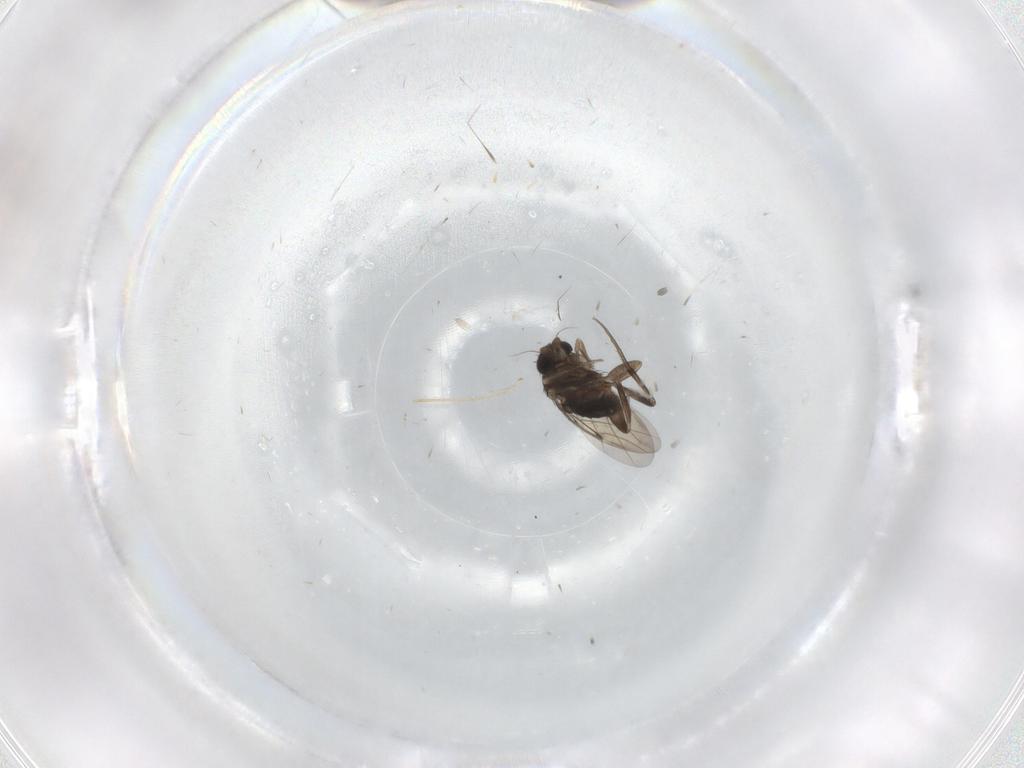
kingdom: Animalia
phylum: Arthropoda
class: Insecta
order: Diptera
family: Phoridae
